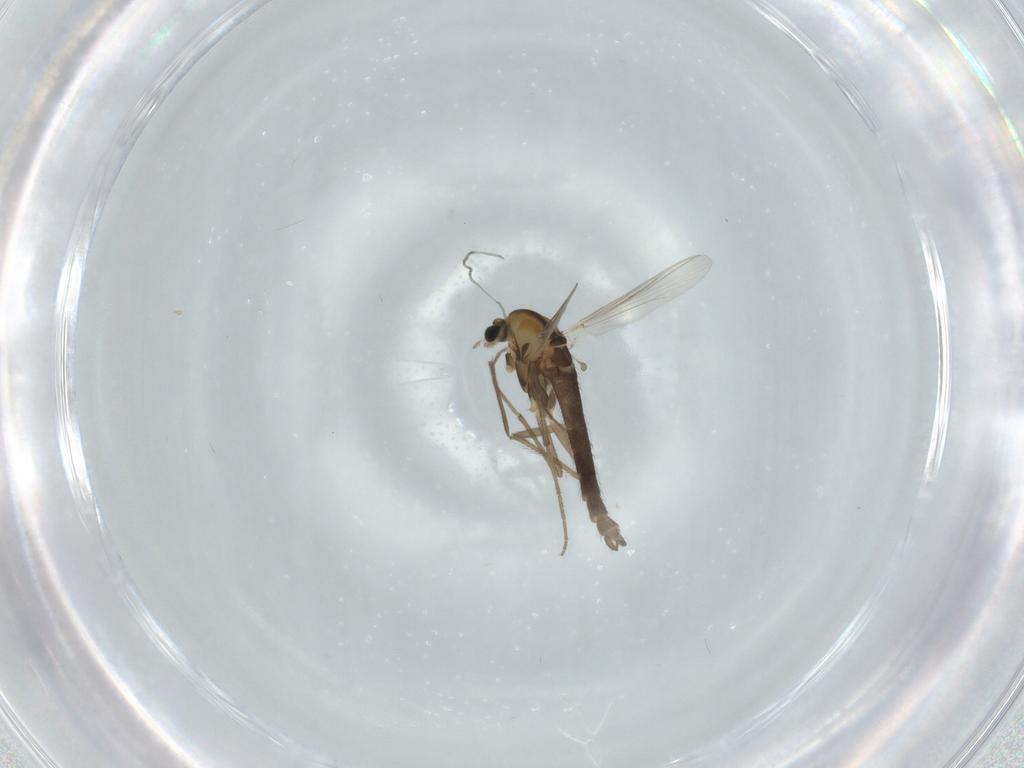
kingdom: Animalia
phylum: Arthropoda
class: Insecta
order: Diptera
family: Chironomidae
